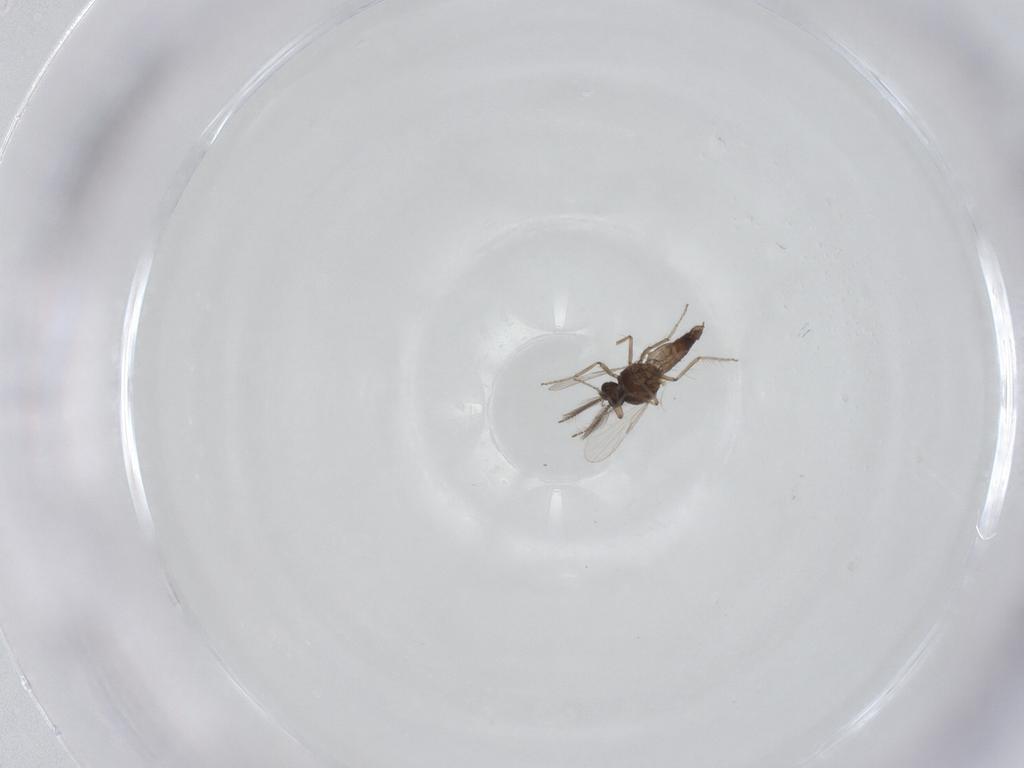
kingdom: Animalia
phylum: Arthropoda
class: Insecta
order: Diptera
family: Ceratopogonidae
